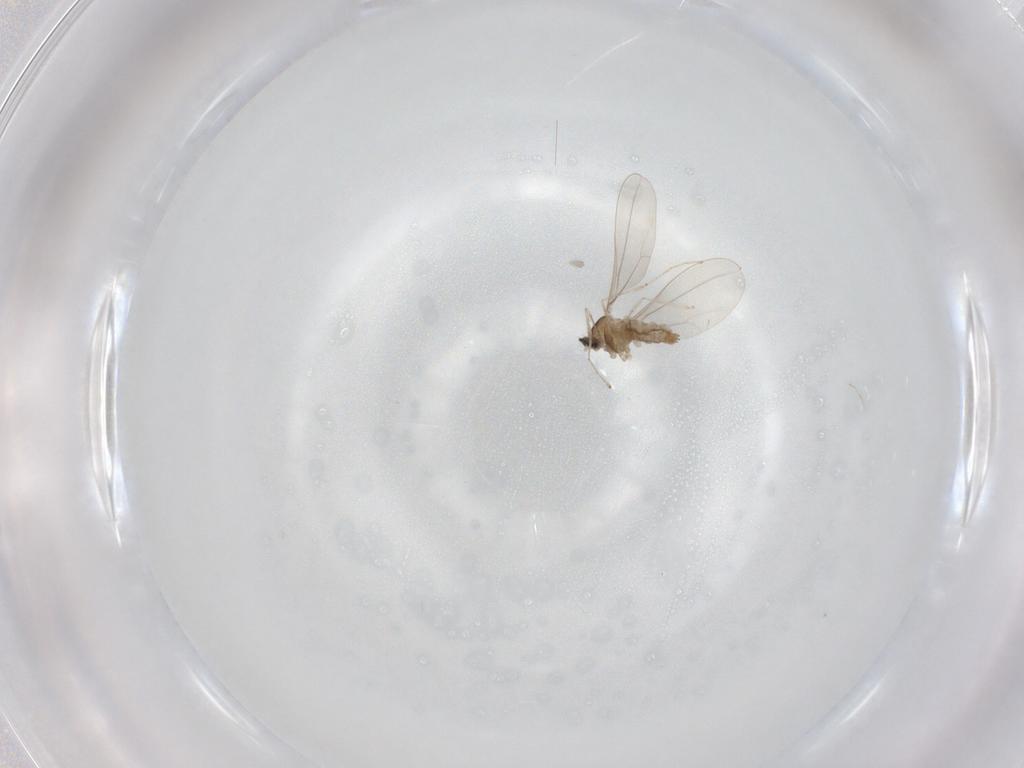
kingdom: Animalia
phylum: Arthropoda
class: Insecta
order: Diptera
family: Cecidomyiidae
